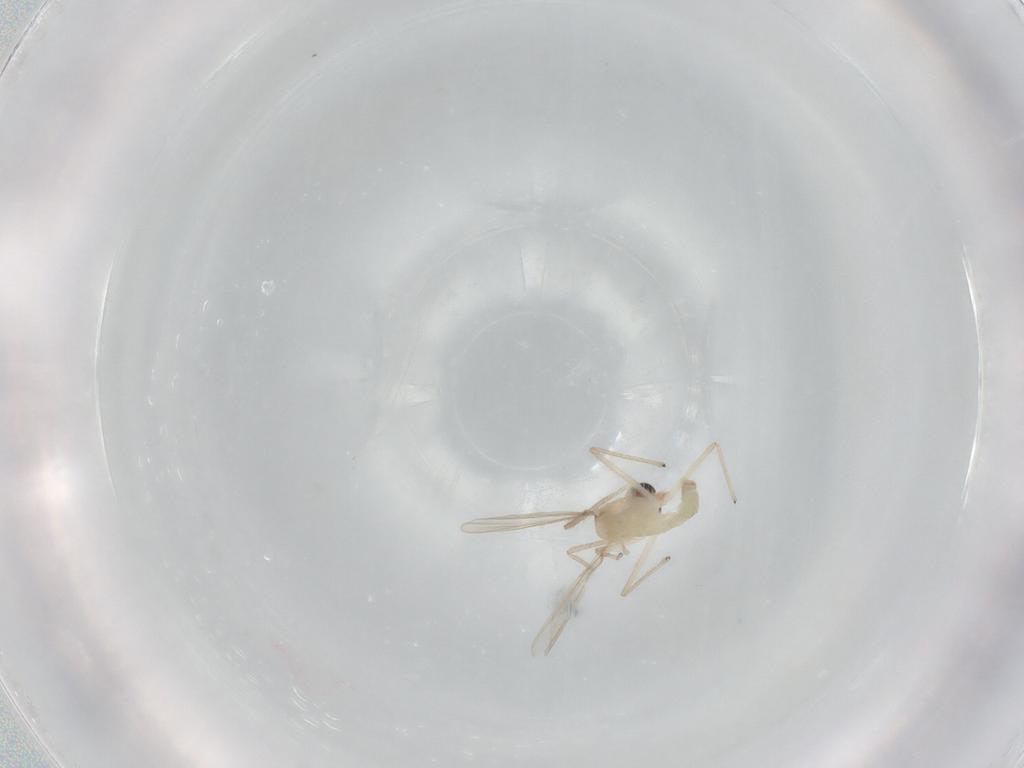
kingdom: Animalia
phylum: Arthropoda
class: Insecta
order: Diptera
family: Chironomidae
